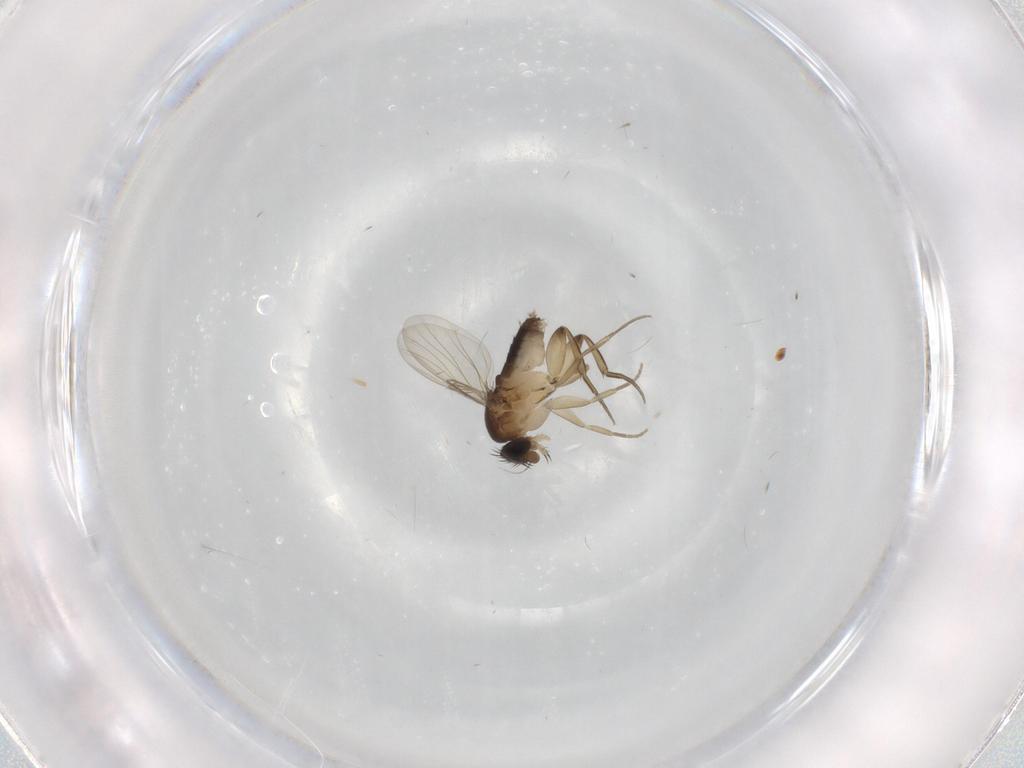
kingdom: Animalia
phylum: Arthropoda
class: Insecta
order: Diptera
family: Phoridae
